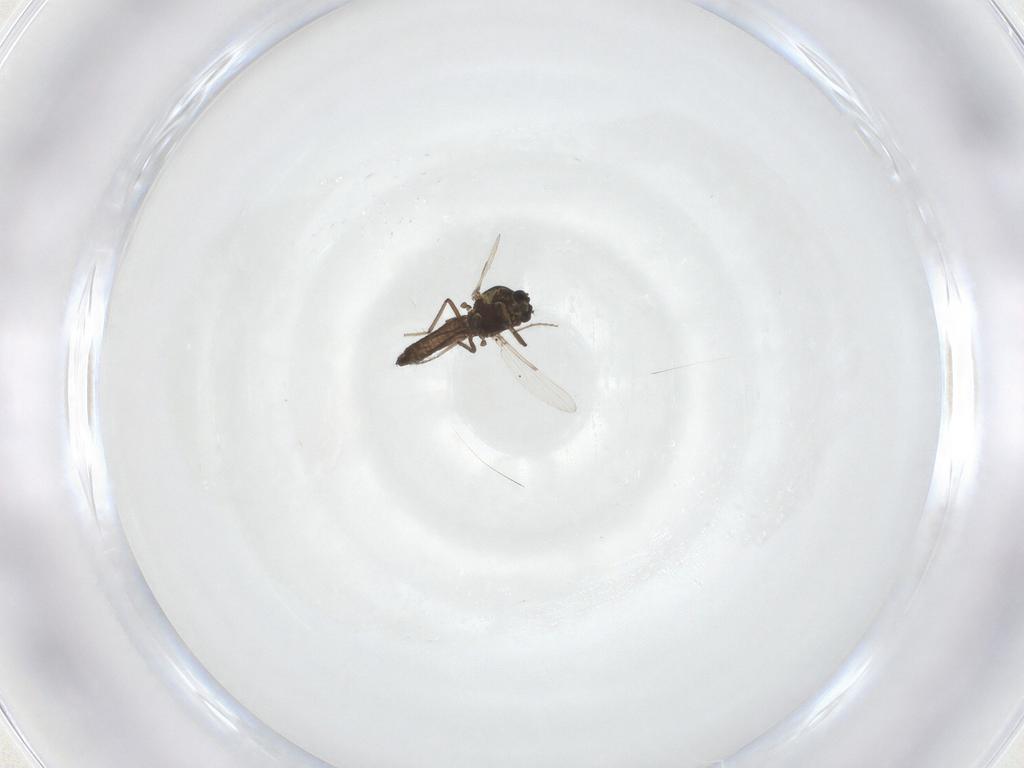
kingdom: Animalia
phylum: Arthropoda
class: Insecta
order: Diptera
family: Ceratopogonidae
